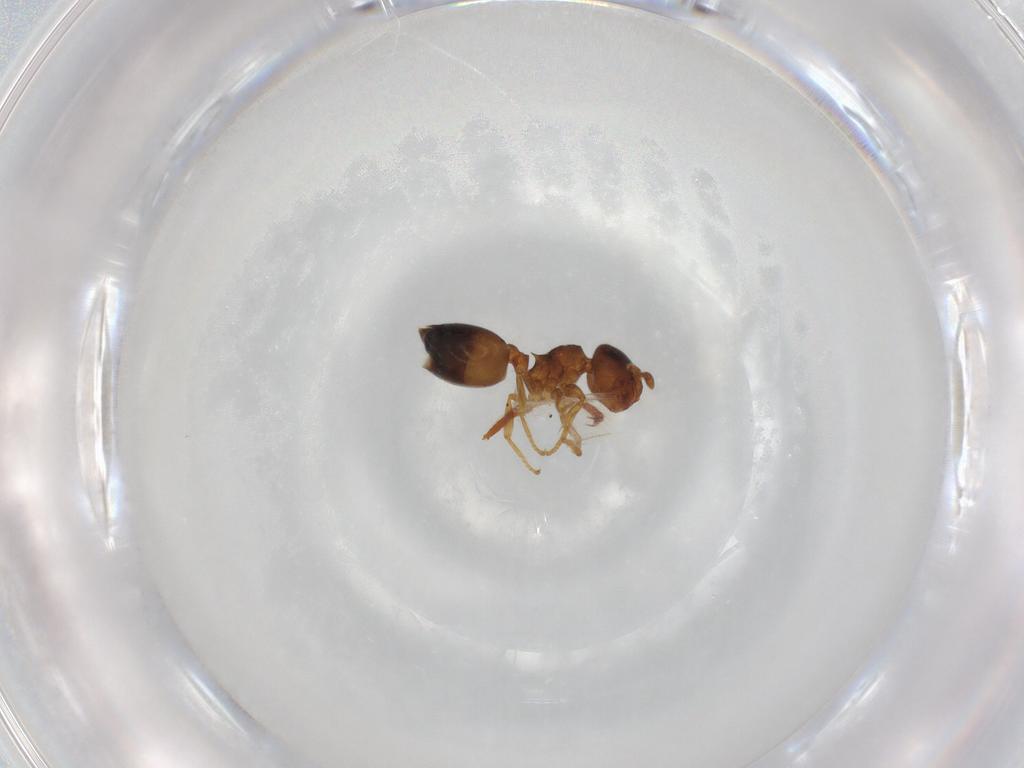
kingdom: Animalia
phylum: Arthropoda
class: Insecta
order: Hymenoptera
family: Formicidae
